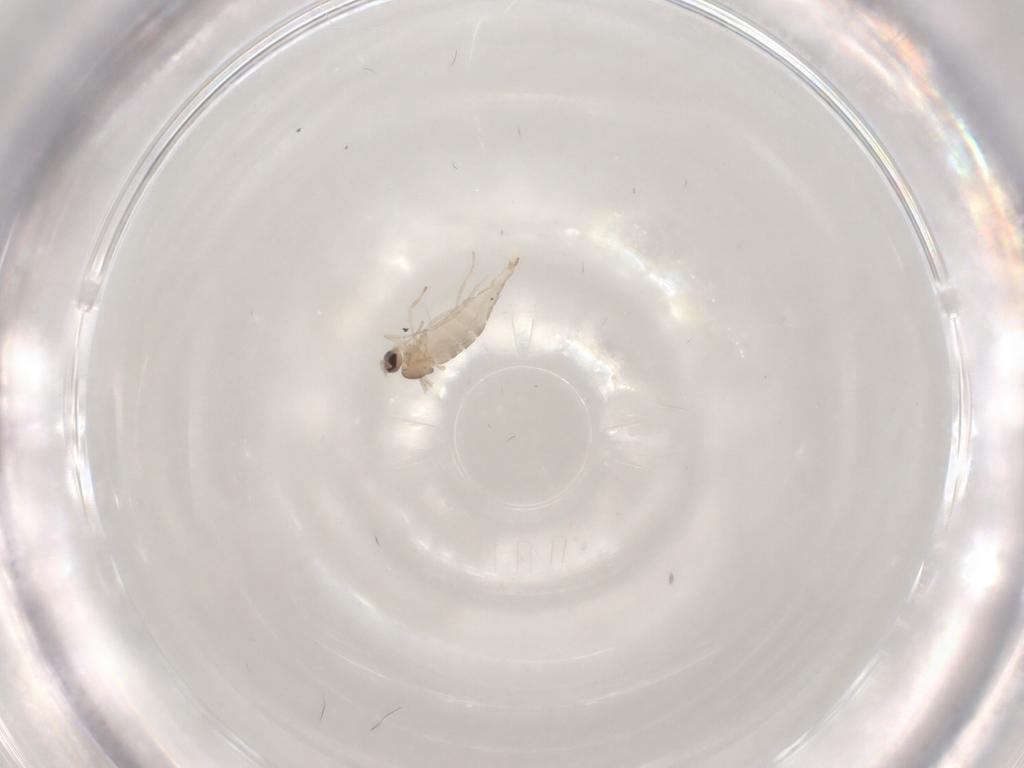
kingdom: Animalia
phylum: Arthropoda
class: Insecta
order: Diptera
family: Cecidomyiidae
